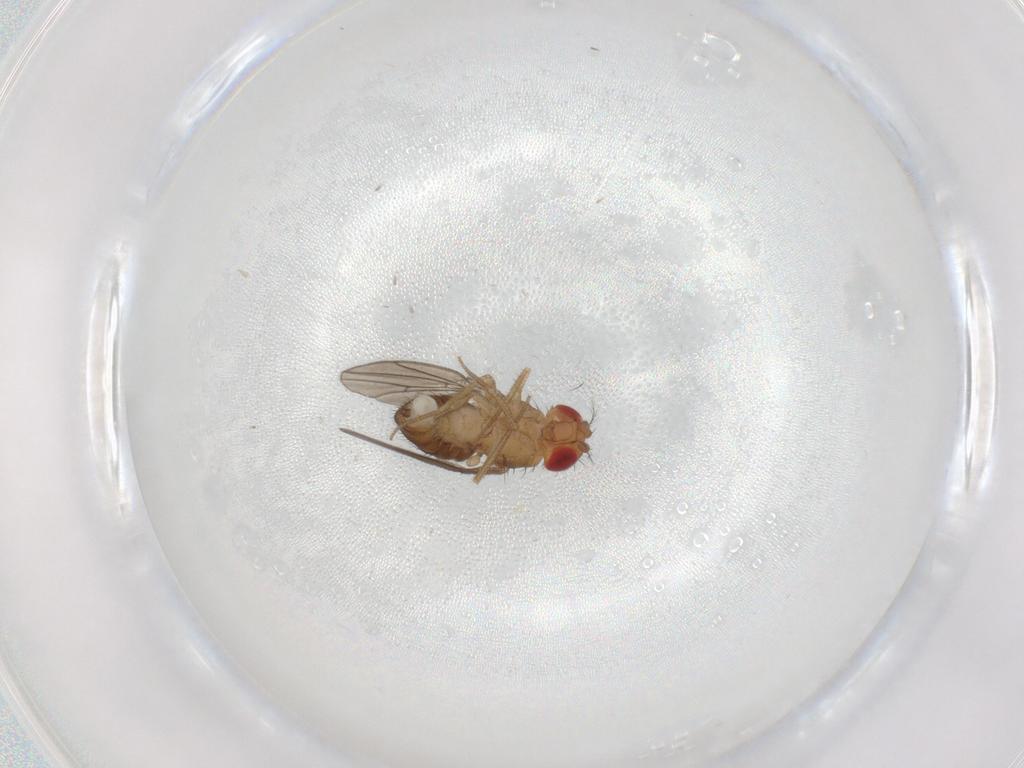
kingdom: Animalia
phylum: Arthropoda
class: Insecta
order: Diptera
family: Drosophilidae
